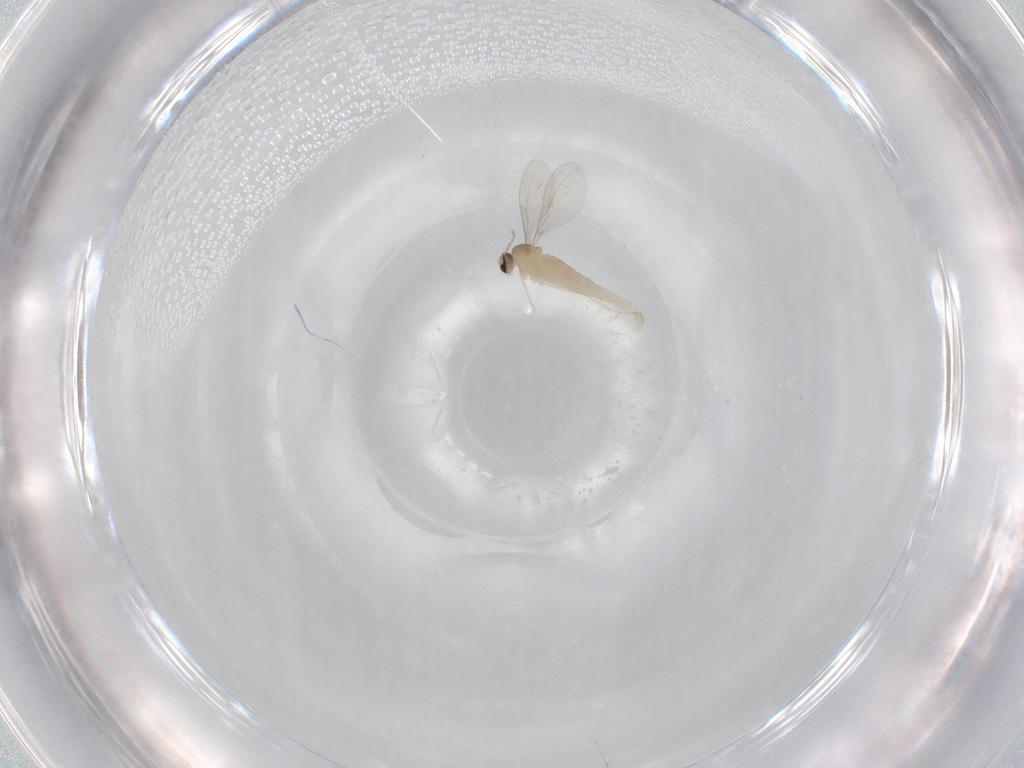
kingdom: Animalia
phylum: Arthropoda
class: Insecta
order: Diptera
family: Cecidomyiidae
